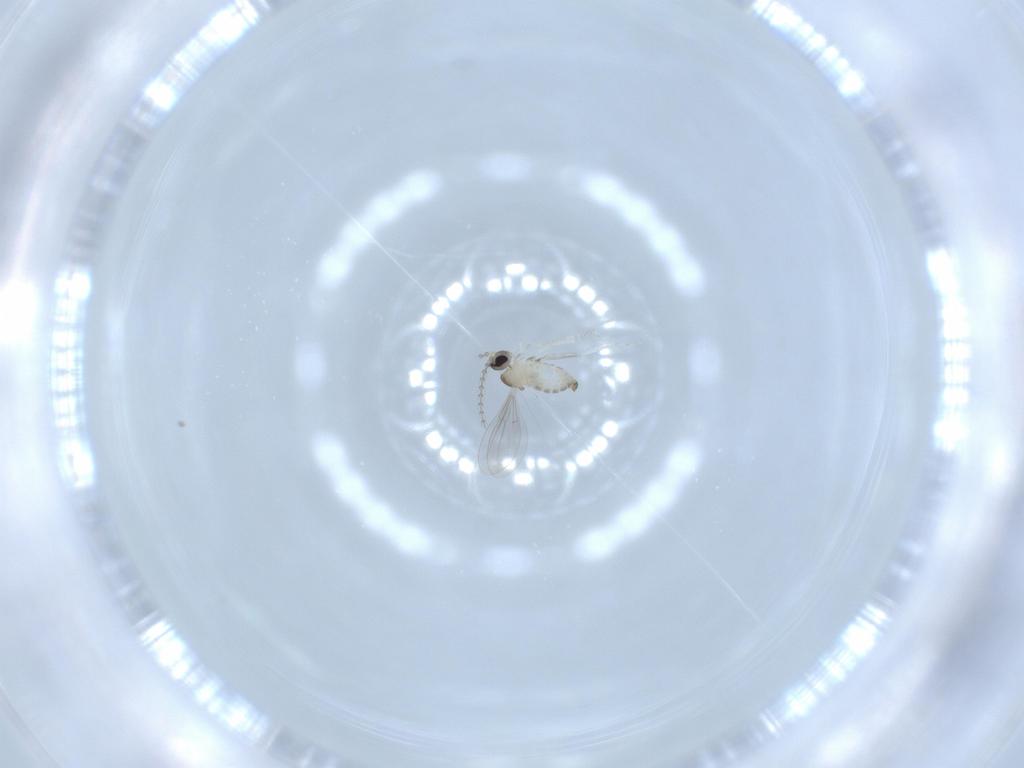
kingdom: Animalia
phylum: Arthropoda
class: Insecta
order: Diptera
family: Cecidomyiidae
